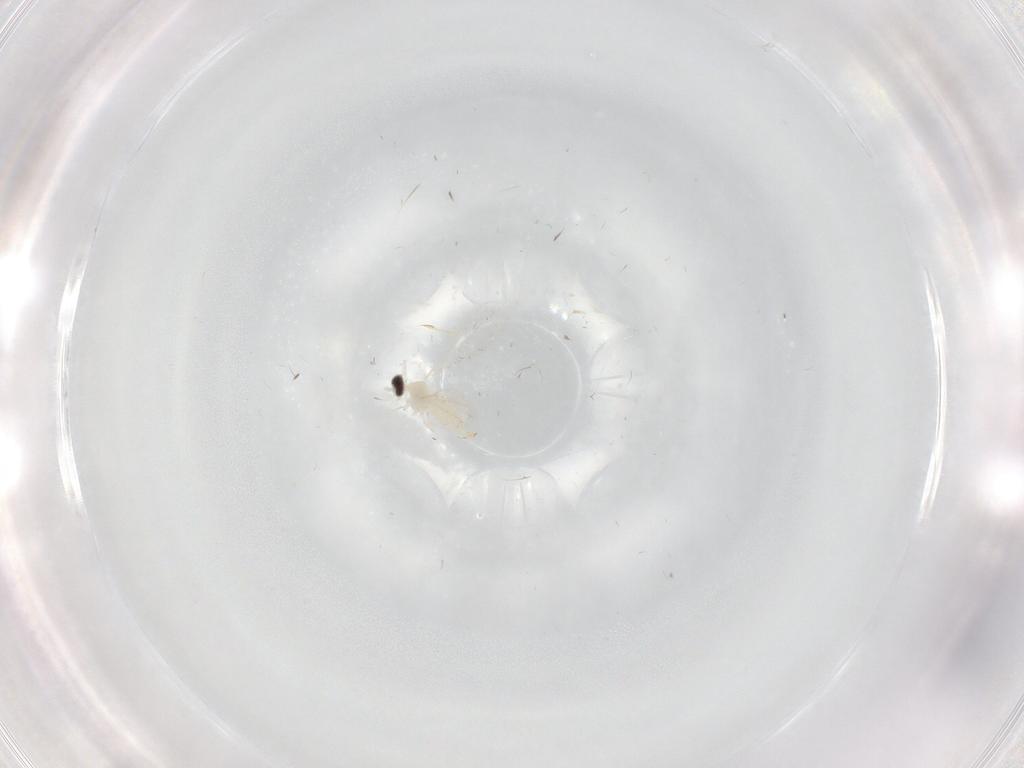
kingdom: Animalia
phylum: Arthropoda
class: Insecta
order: Diptera
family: Cecidomyiidae
